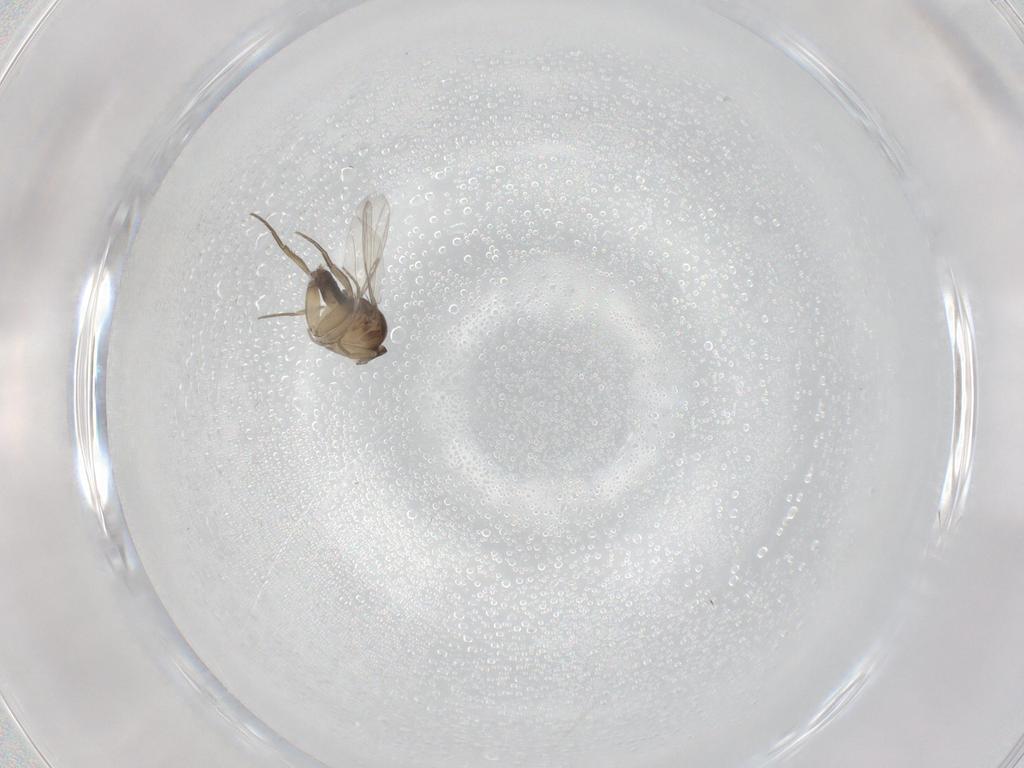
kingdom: Animalia
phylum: Arthropoda
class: Insecta
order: Diptera
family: Phoridae
